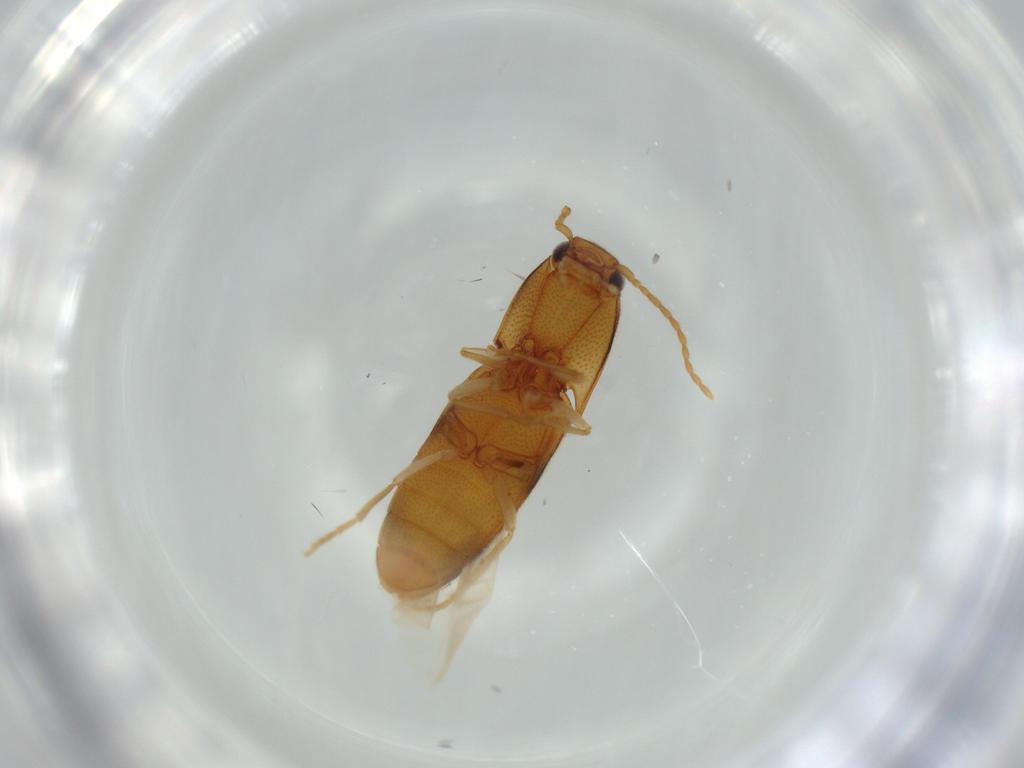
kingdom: Animalia
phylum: Arthropoda
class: Insecta
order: Coleoptera
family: Elateridae
